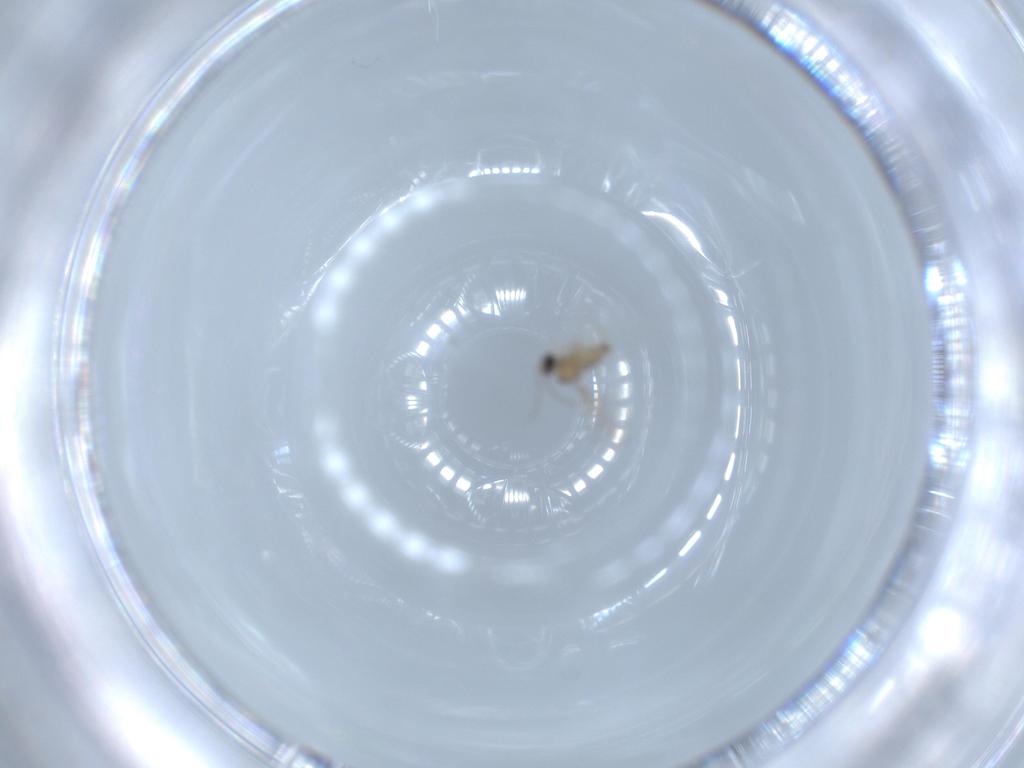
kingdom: Animalia
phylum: Arthropoda
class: Insecta
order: Diptera
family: Cecidomyiidae
